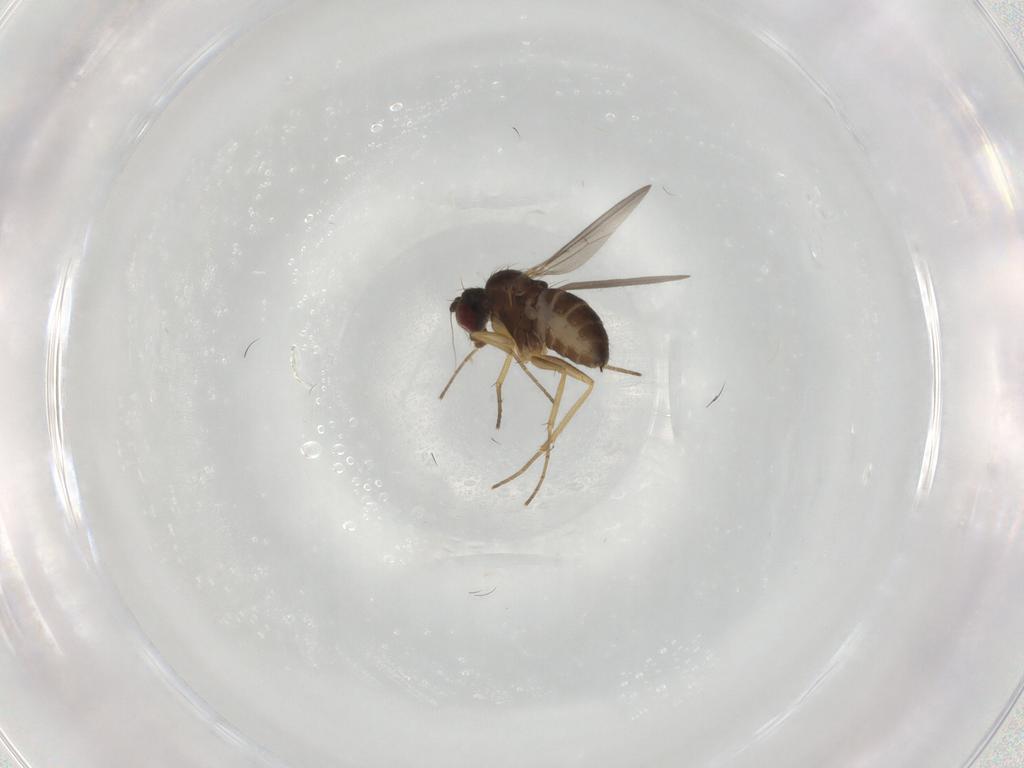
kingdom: Animalia
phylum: Arthropoda
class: Insecta
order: Diptera
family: Dolichopodidae
